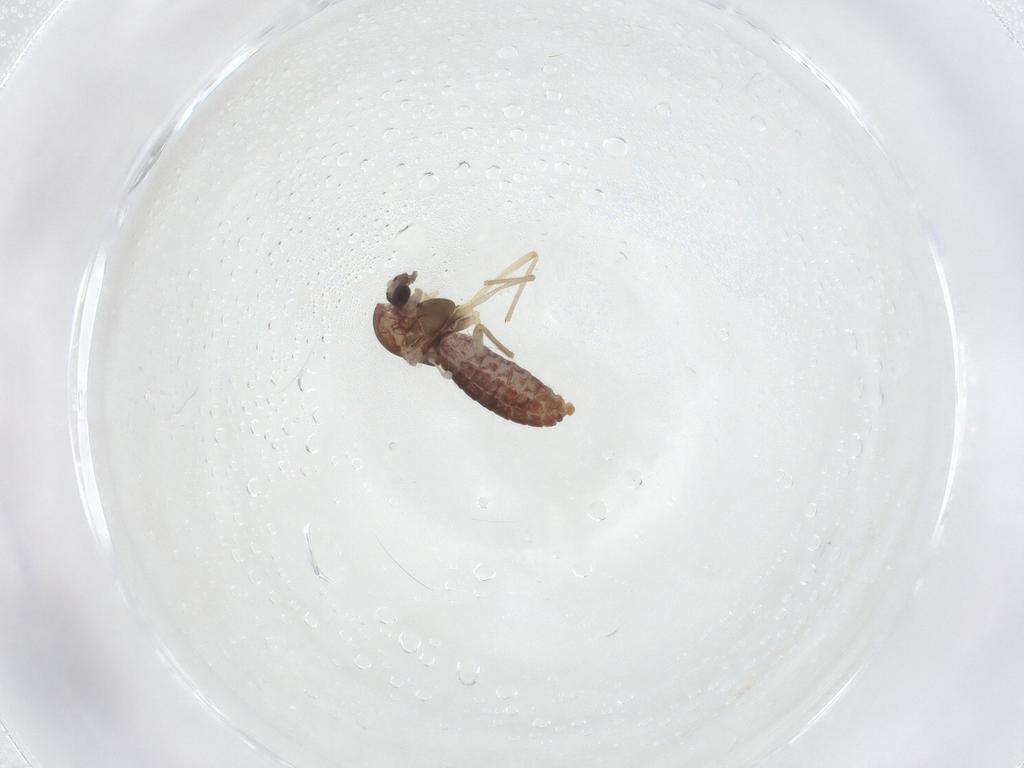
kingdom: Animalia
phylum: Arthropoda
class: Insecta
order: Diptera
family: Chironomidae
